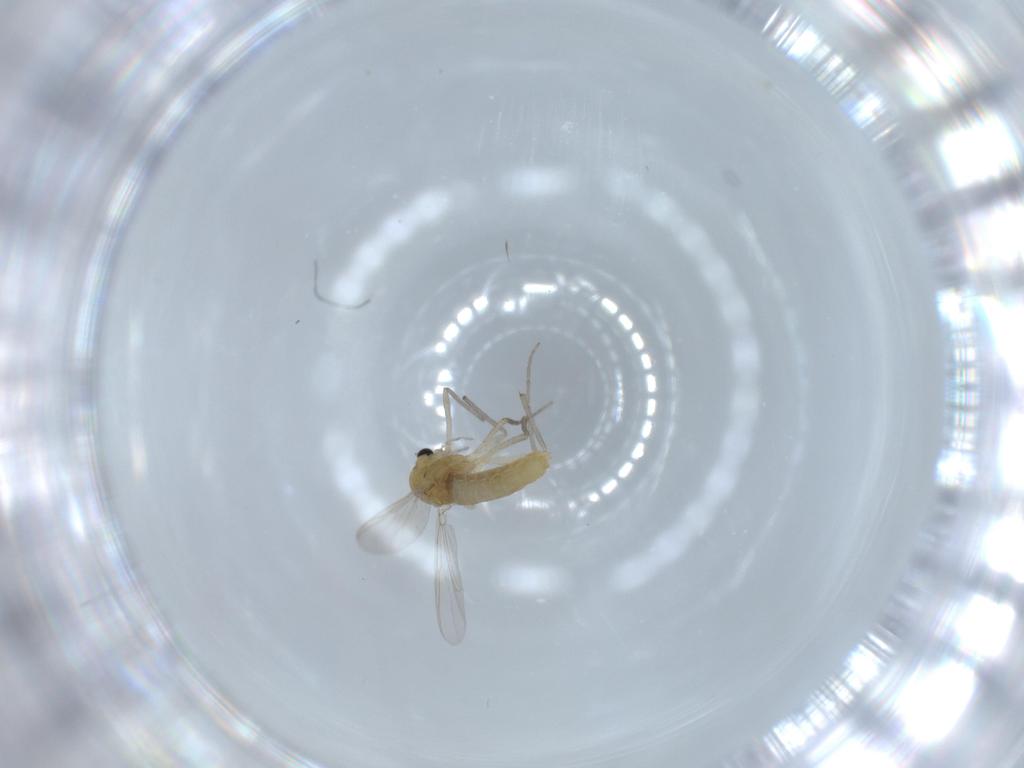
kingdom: Animalia
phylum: Arthropoda
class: Insecta
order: Diptera
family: Chironomidae
